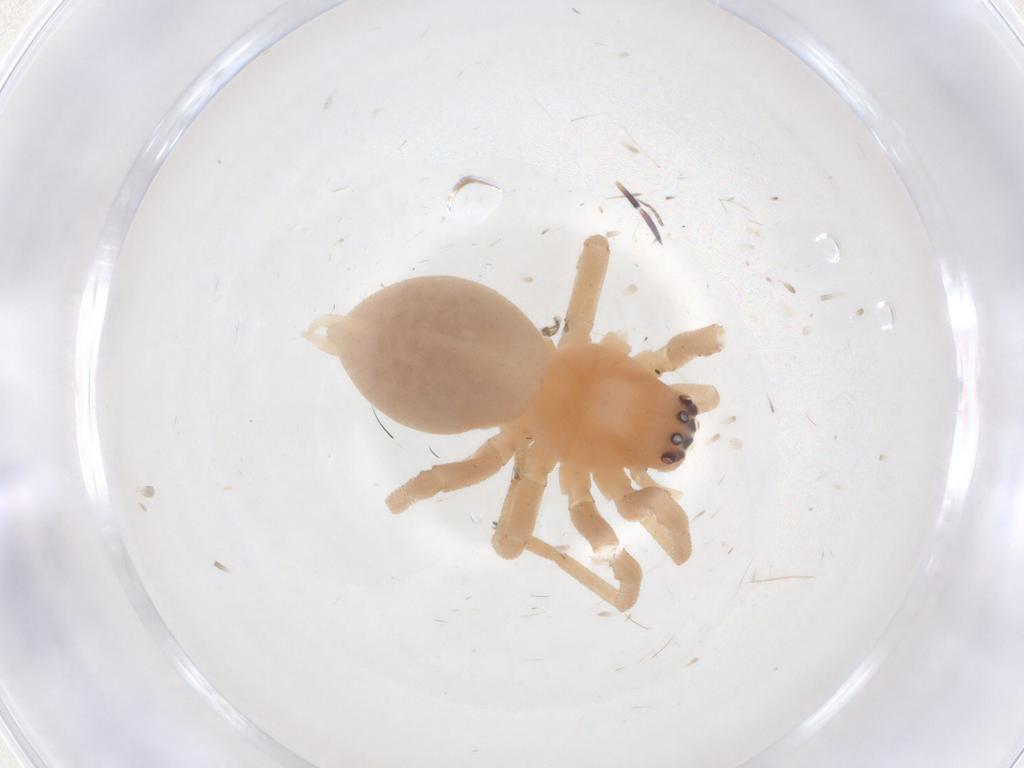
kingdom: Animalia
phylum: Arthropoda
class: Arachnida
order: Araneae
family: Cheiracanthiidae
